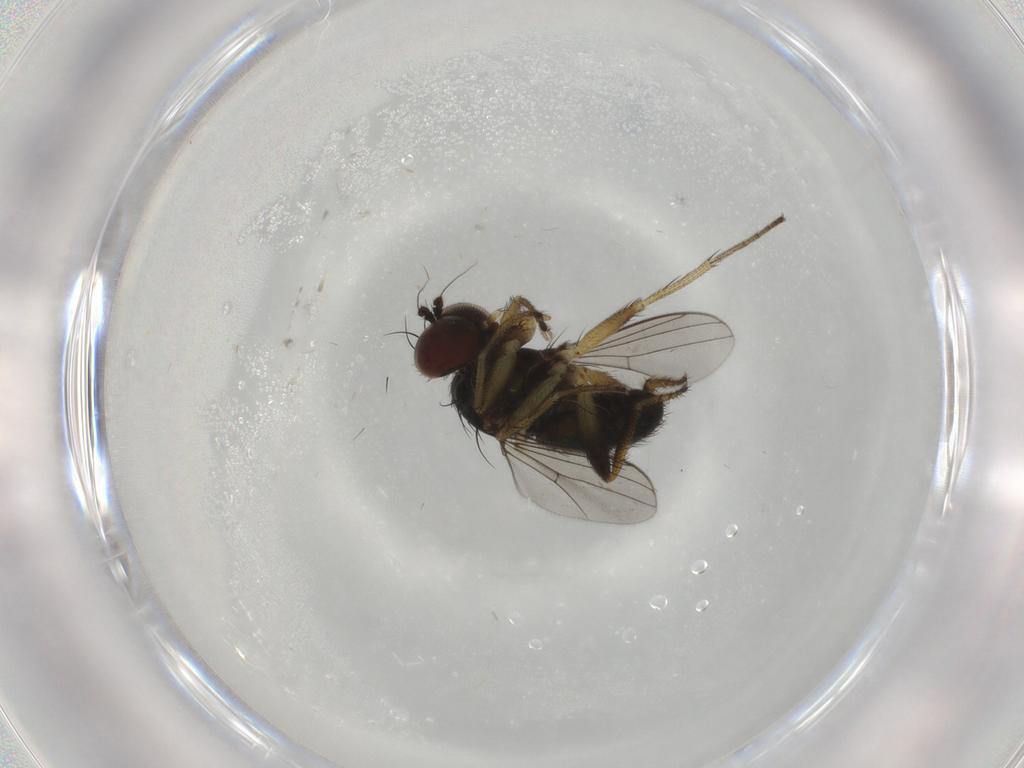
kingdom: Animalia
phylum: Arthropoda
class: Insecta
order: Diptera
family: Dolichopodidae
